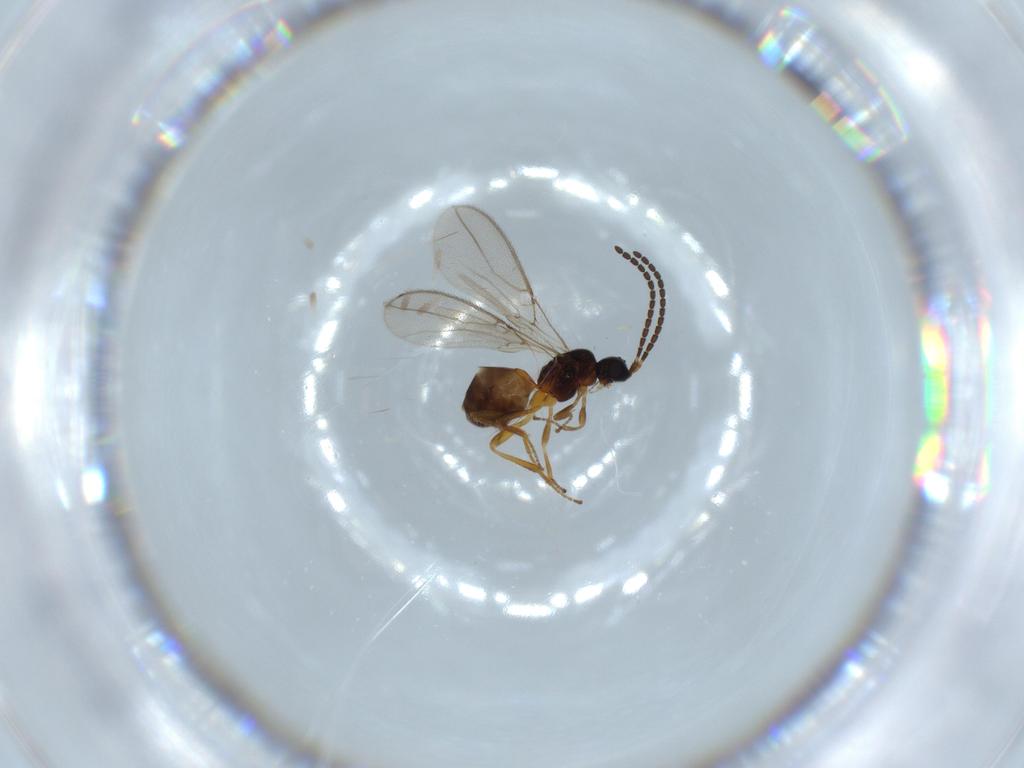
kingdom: Animalia
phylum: Arthropoda
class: Insecta
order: Hymenoptera
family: Braconidae
